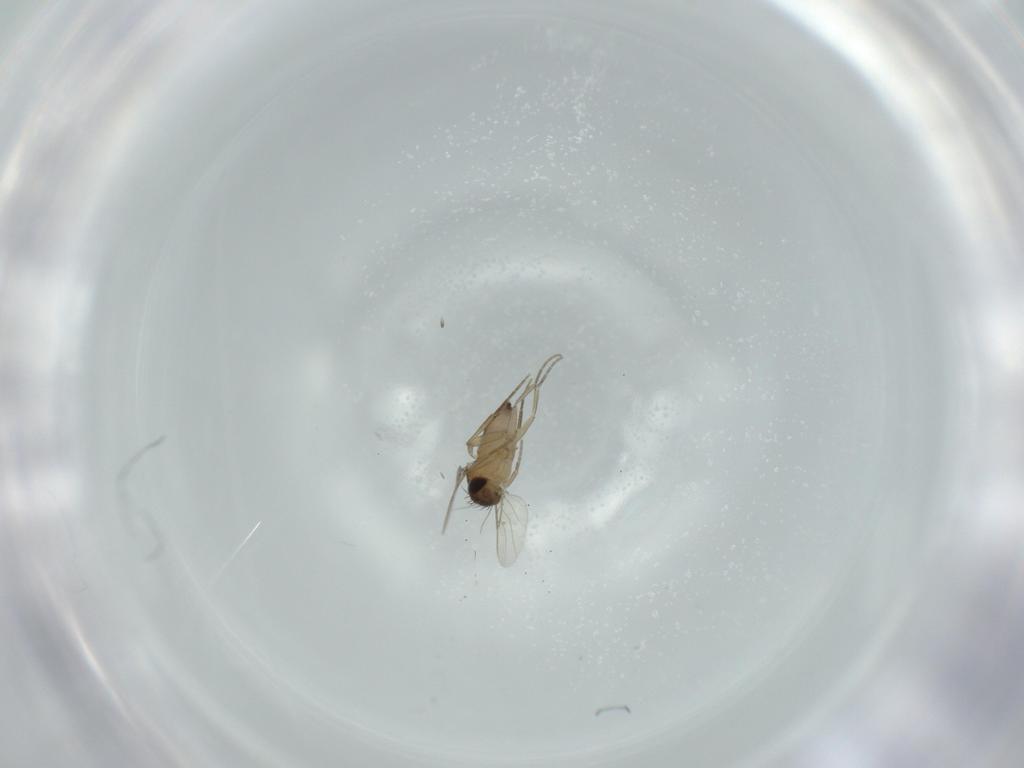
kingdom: Animalia
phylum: Arthropoda
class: Insecta
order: Diptera
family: Phoridae
